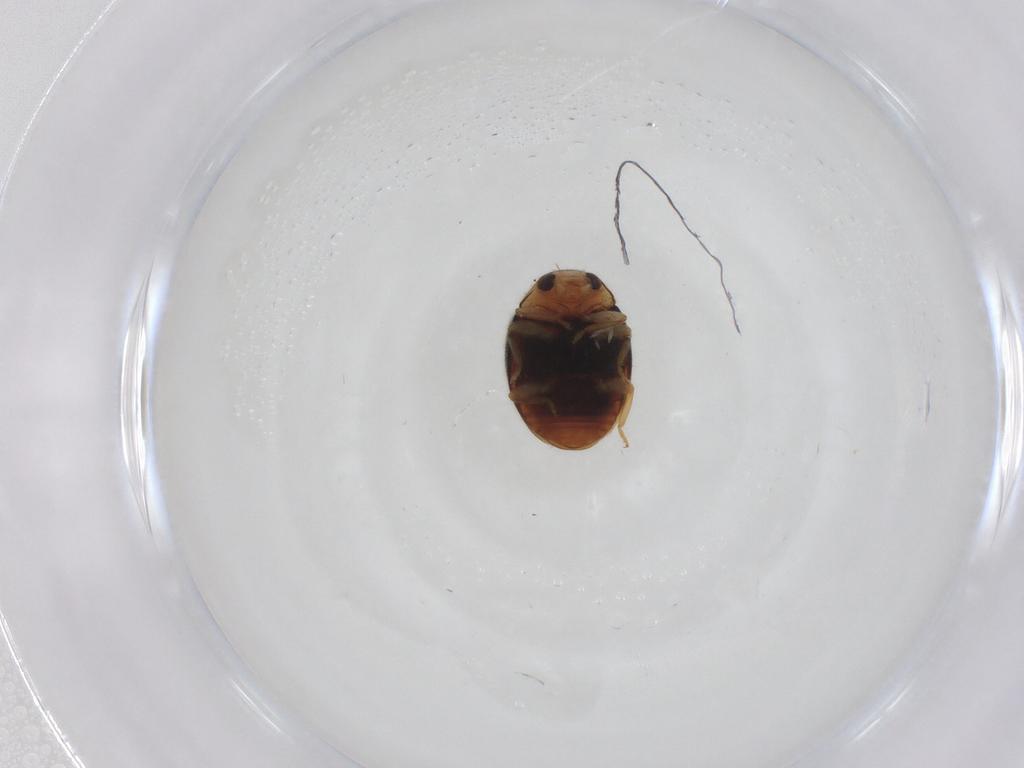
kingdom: Animalia
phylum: Arthropoda
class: Insecta
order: Coleoptera
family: Coccinellidae
